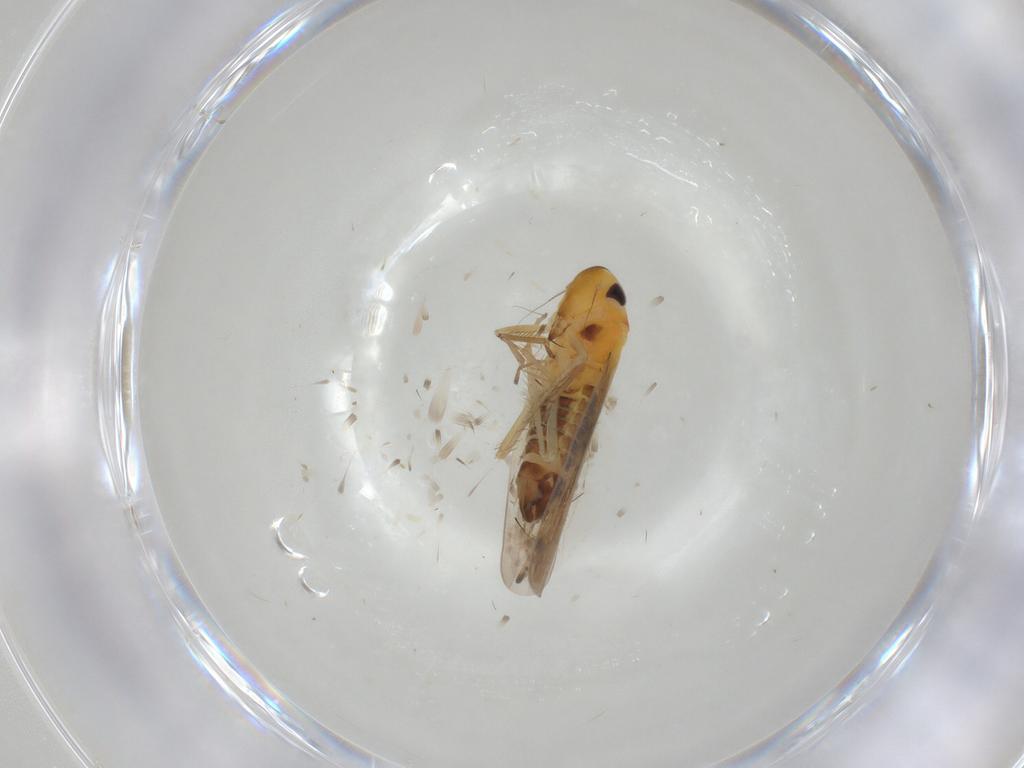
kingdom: Animalia
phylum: Arthropoda
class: Insecta
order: Hemiptera
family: Cicadellidae
